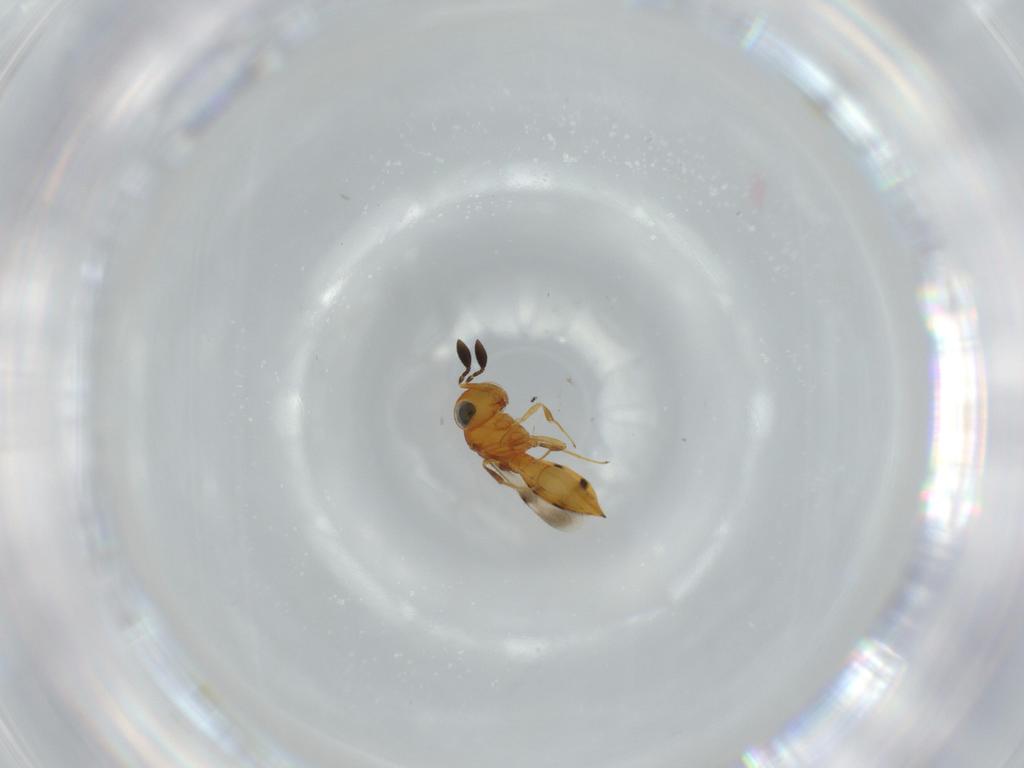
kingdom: Animalia
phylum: Arthropoda
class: Insecta
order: Hymenoptera
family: Scelionidae
